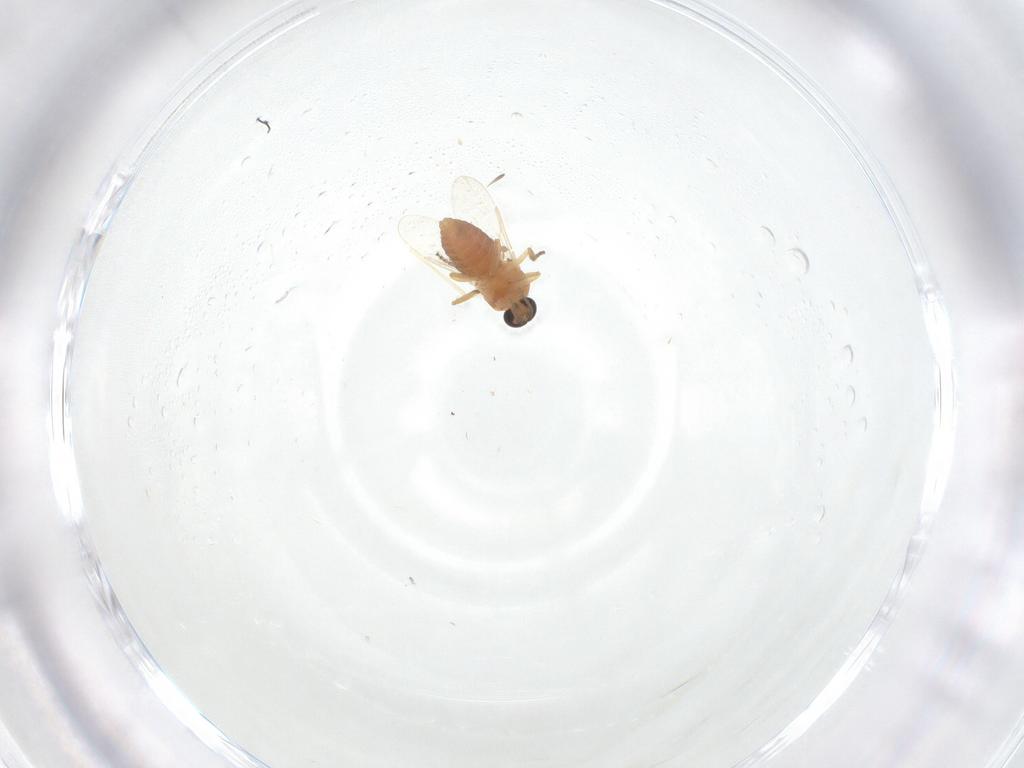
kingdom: Animalia
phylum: Arthropoda
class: Insecta
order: Diptera
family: Ceratopogonidae
